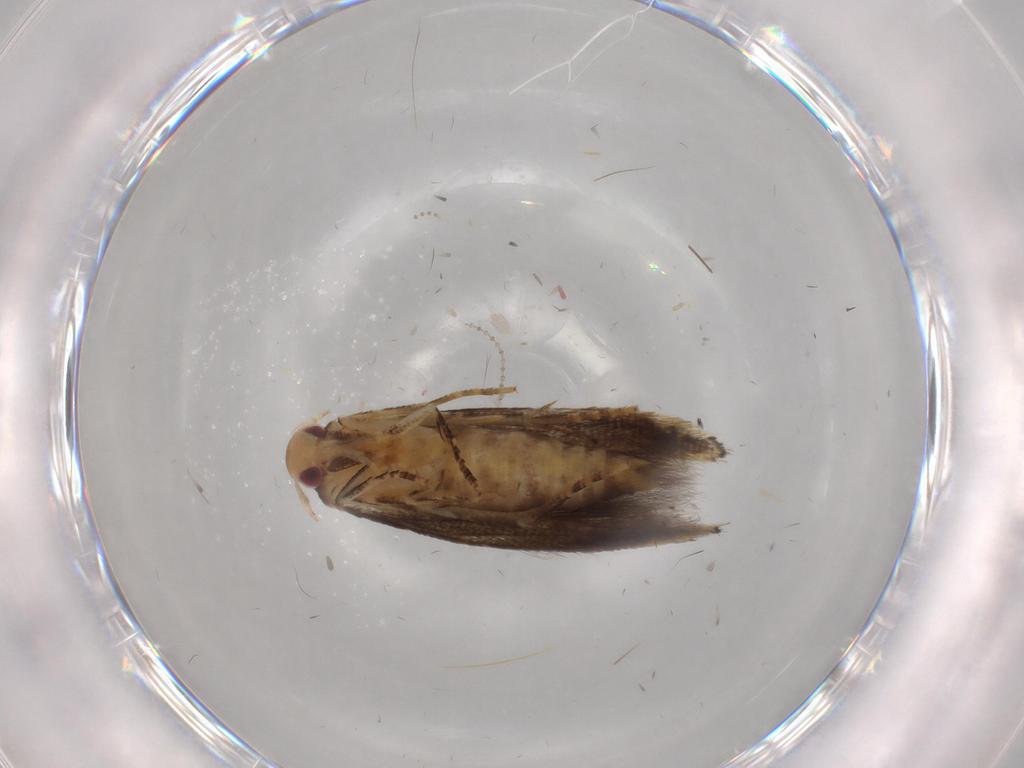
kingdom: Animalia
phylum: Arthropoda
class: Insecta
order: Lepidoptera
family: Momphidae
